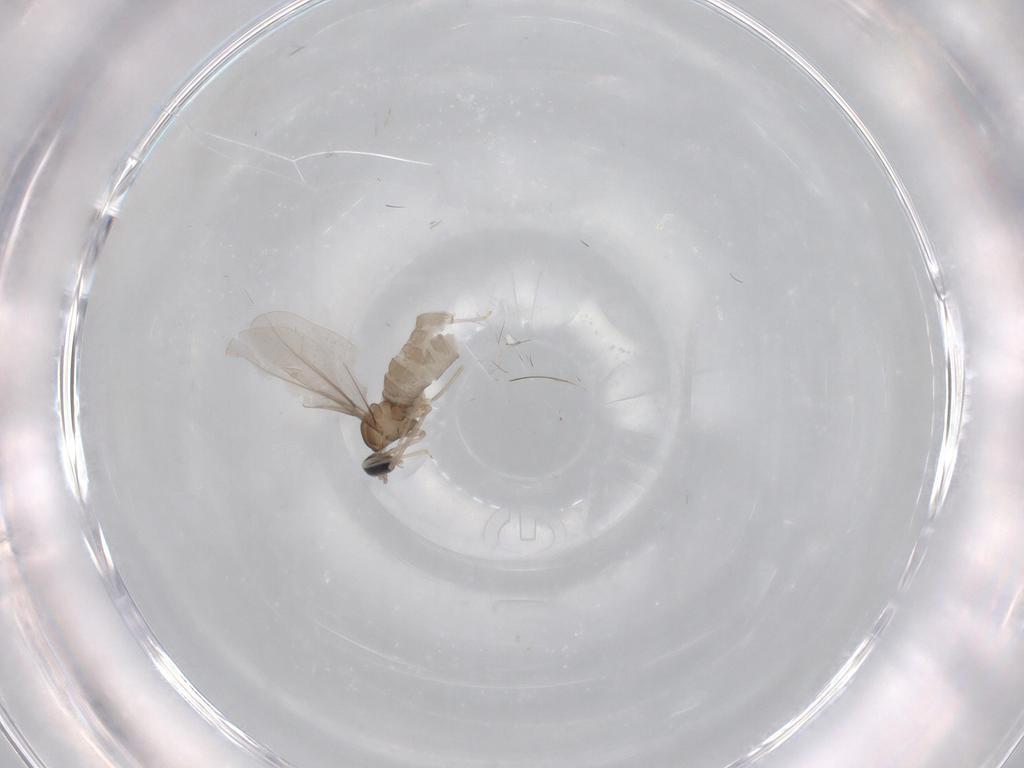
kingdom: Animalia
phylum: Arthropoda
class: Insecta
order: Diptera
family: Cecidomyiidae
